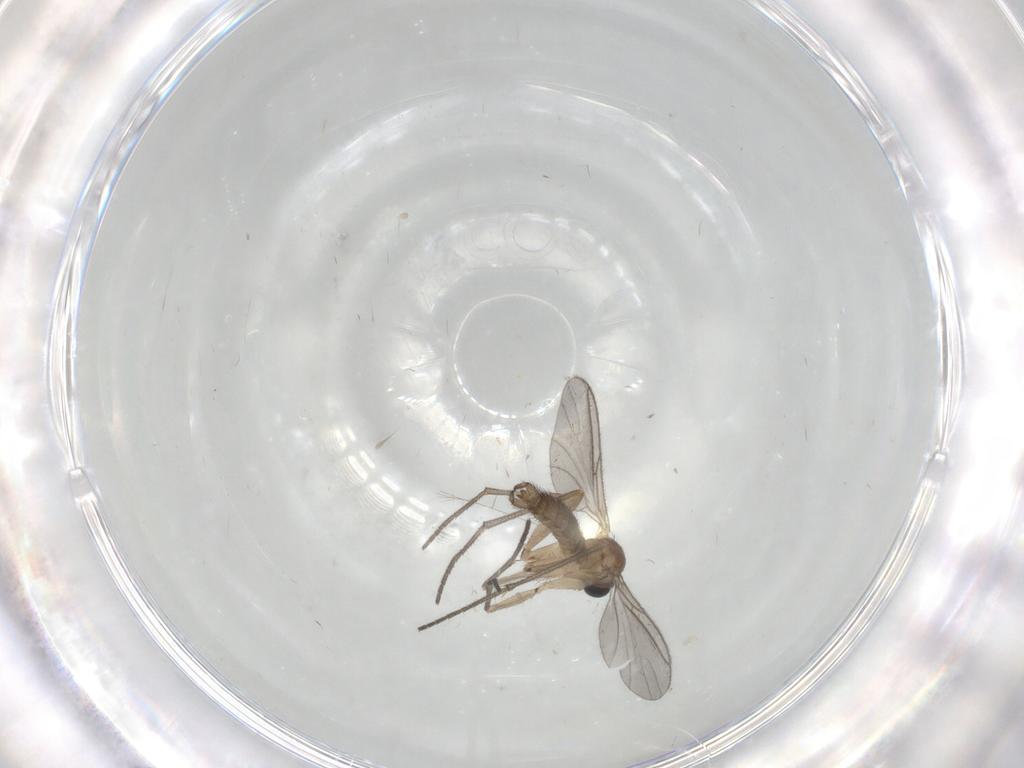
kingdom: Animalia
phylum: Arthropoda
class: Insecta
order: Diptera
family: Sciaridae
